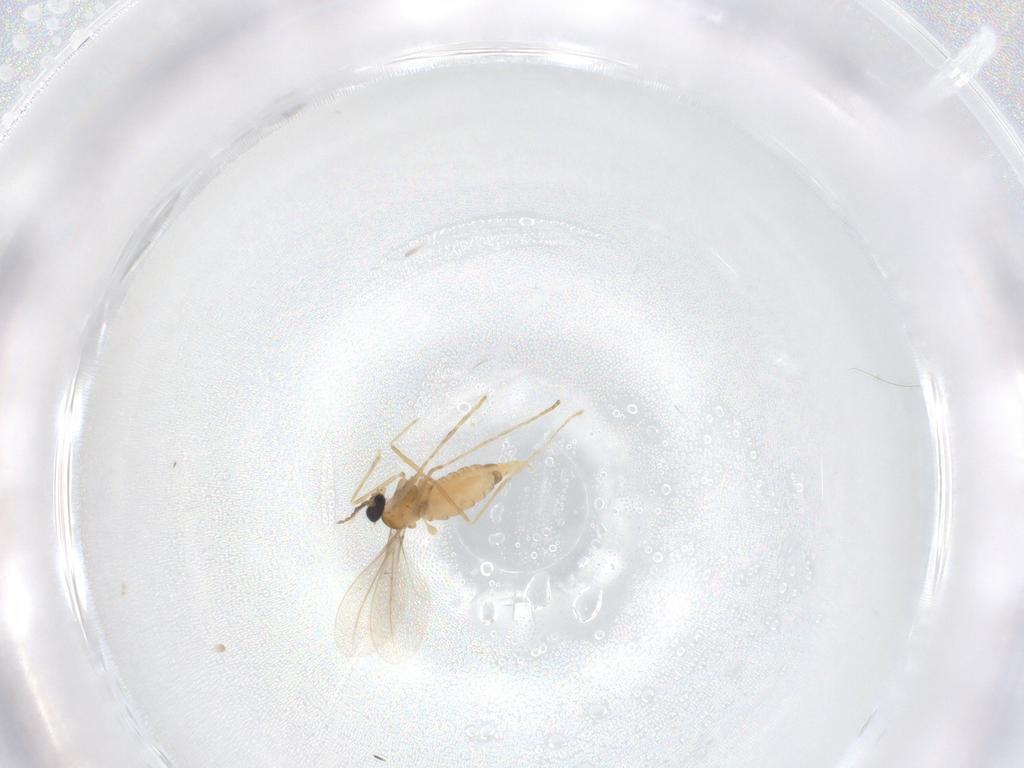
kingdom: Animalia
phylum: Arthropoda
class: Insecta
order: Diptera
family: Cecidomyiidae
